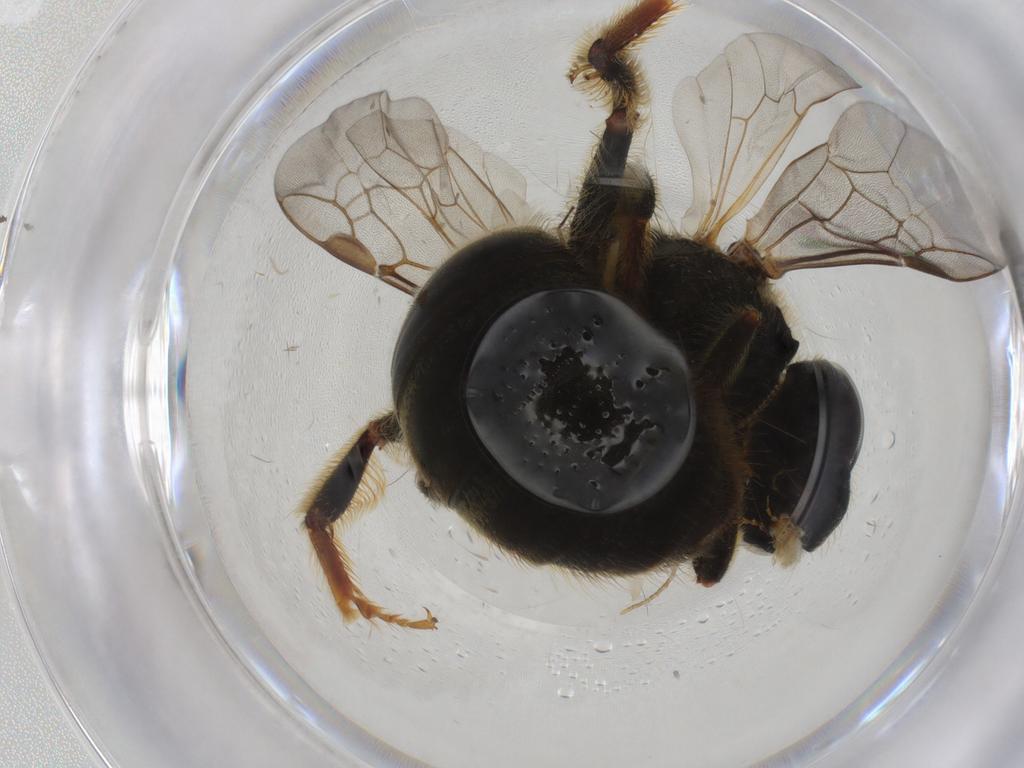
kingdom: Animalia
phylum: Arthropoda
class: Insecta
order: Hymenoptera
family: Halictidae
